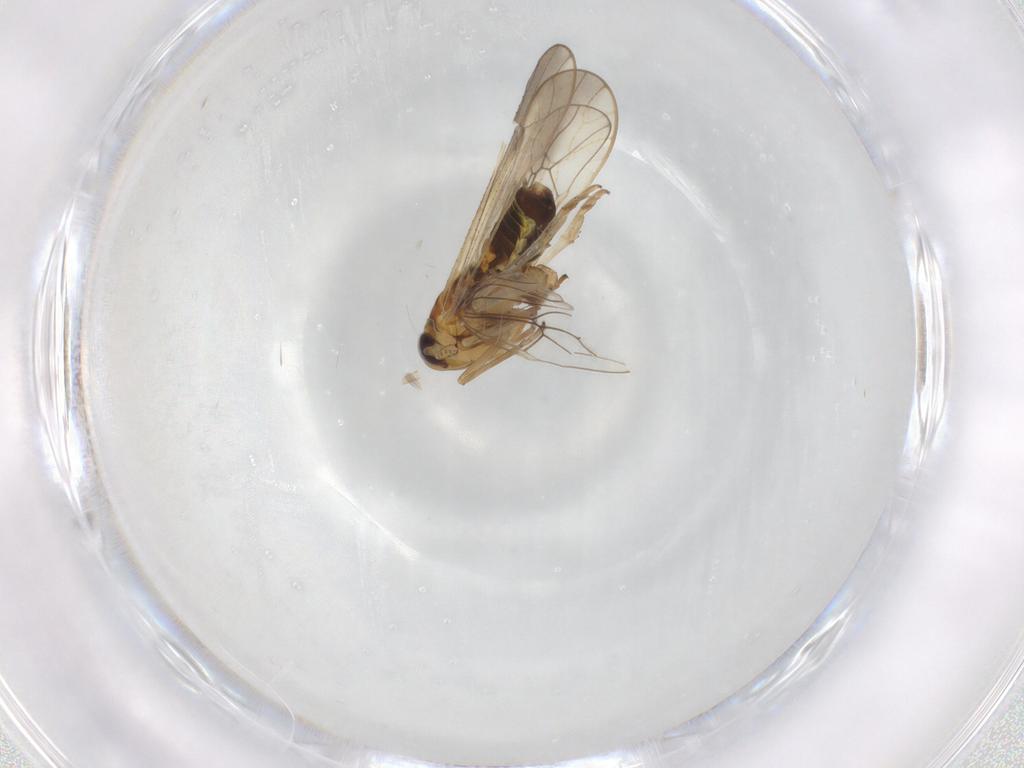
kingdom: Animalia
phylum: Arthropoda
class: Insecta
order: Hemiptera
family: Delphacidae
